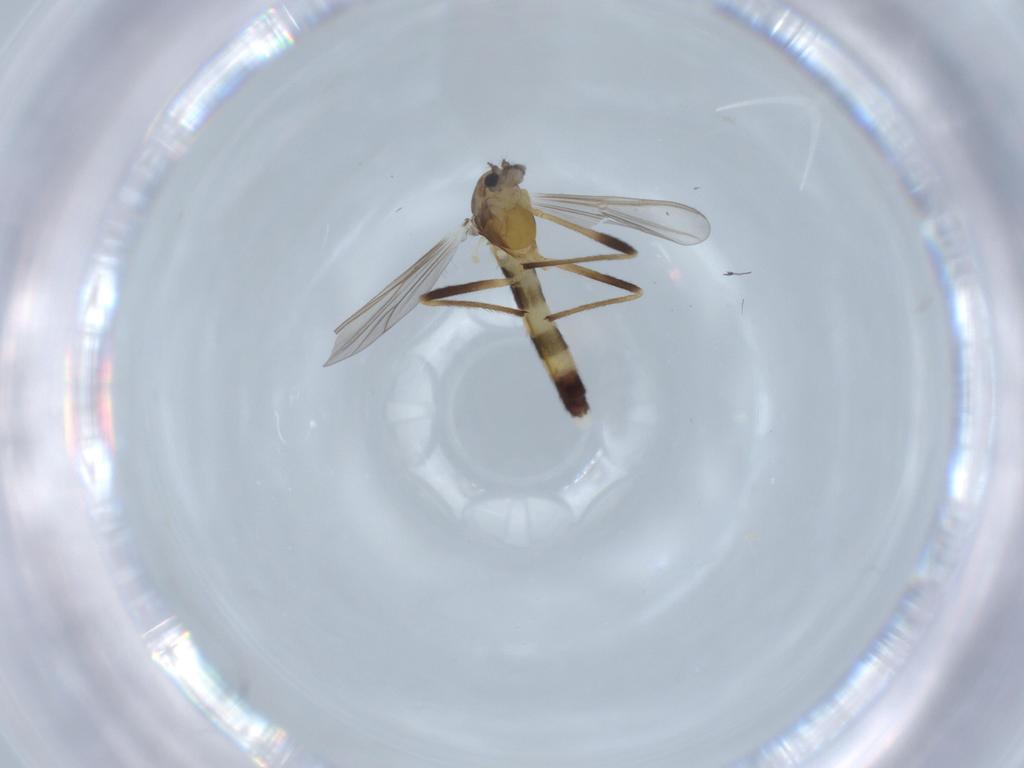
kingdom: Animalia
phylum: Arthropoda
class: Insecta
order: Diptera
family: Chironomidae
